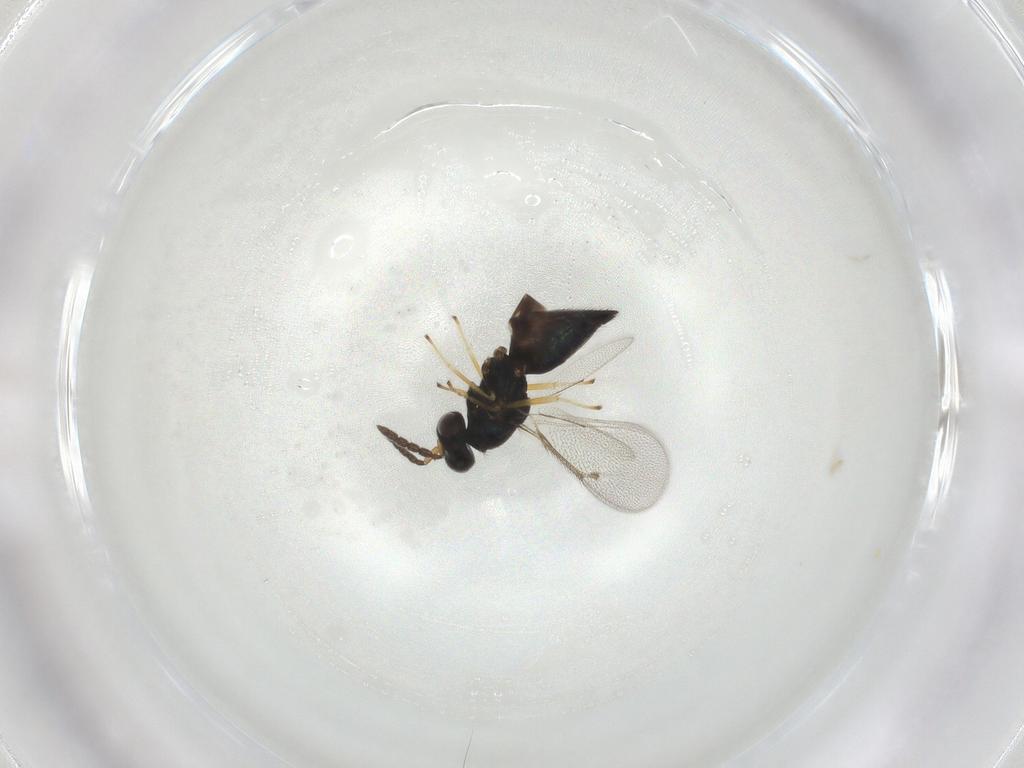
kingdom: Animalia
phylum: Arthropoda
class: Insecta
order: Hymenoptera
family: Eulophidae
